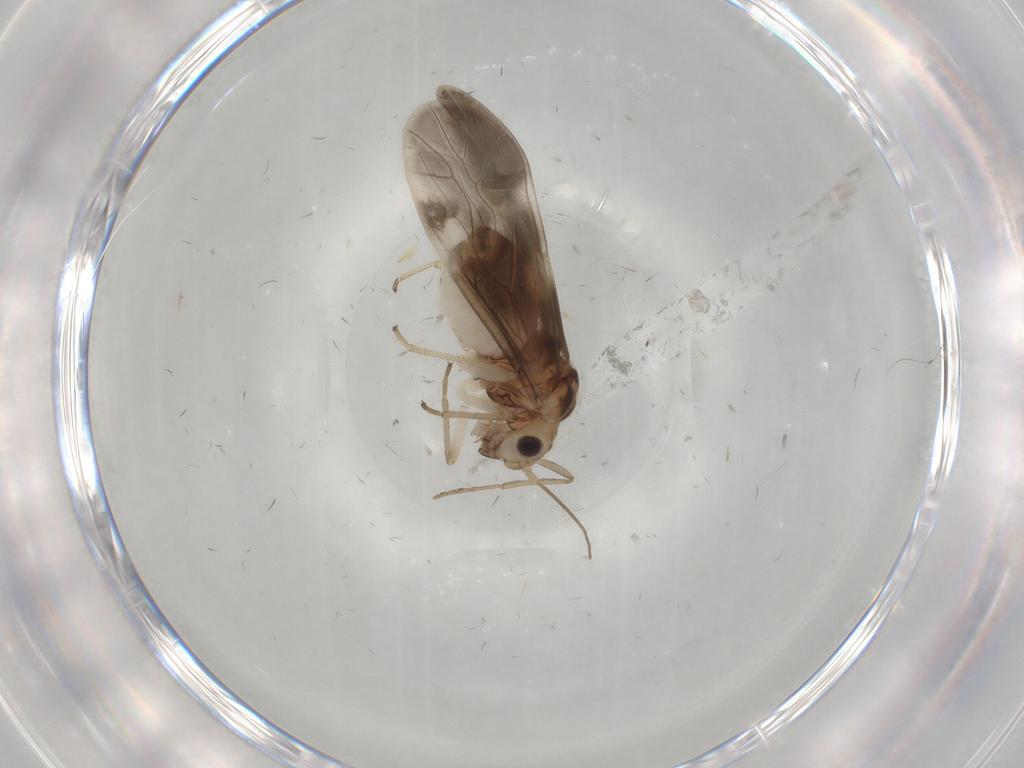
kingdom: Animalia
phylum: Arthropoda
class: Insecta
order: Psocodea
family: Caeciliusidae
